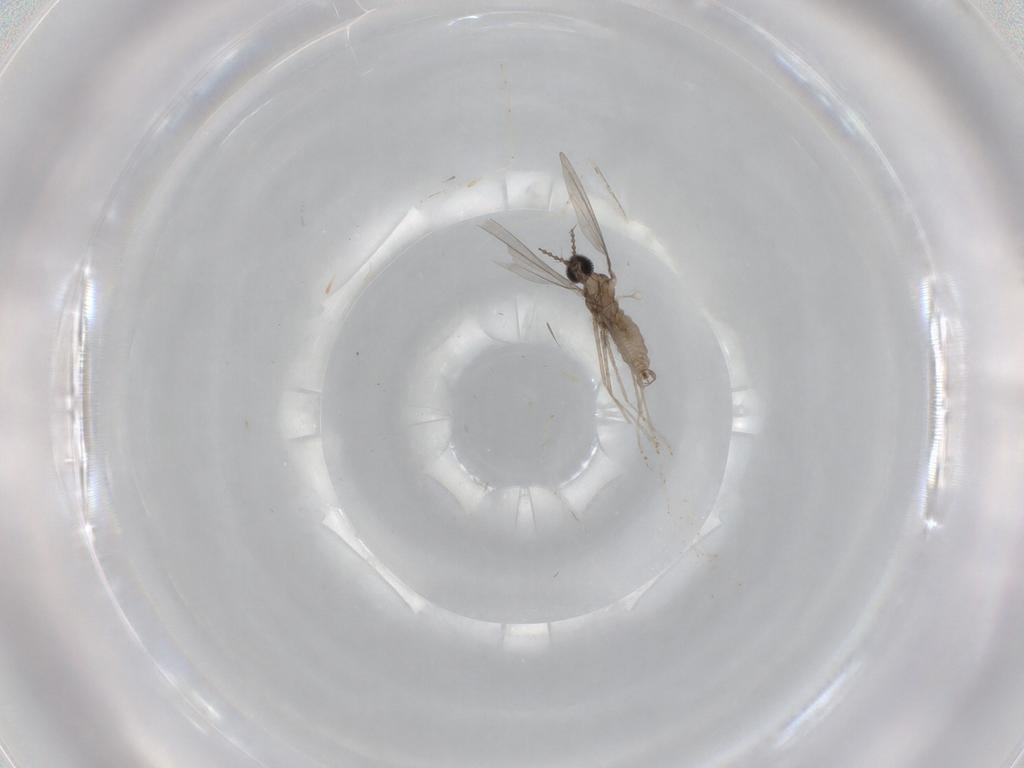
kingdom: Animalia
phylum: Arthropoda
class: Insecta
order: Diptera
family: Cecidomyiidae
